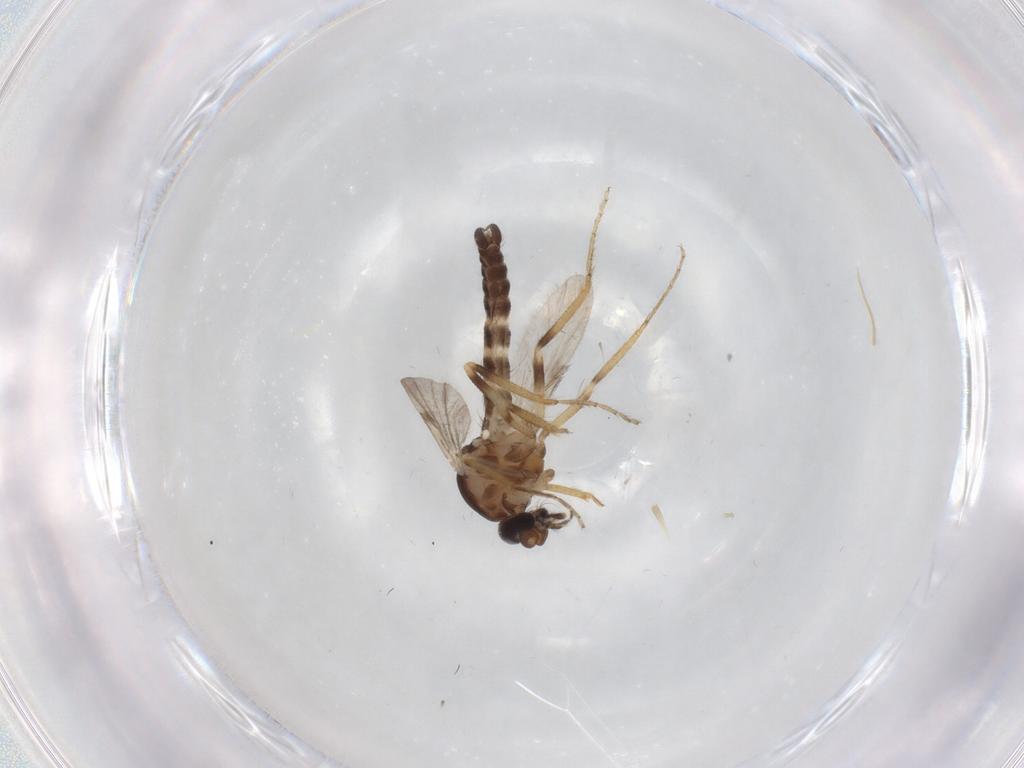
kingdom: Animalia
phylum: Arthropoda
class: Insecta
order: Diptera
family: Ceratopogonidae
